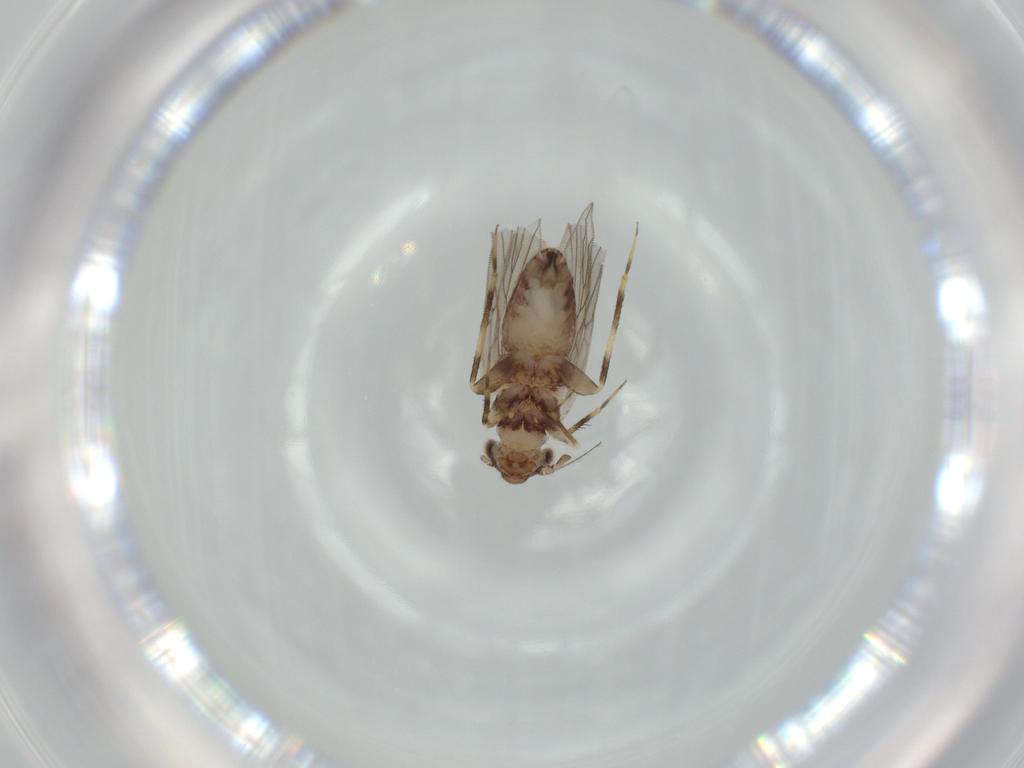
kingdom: Animalia
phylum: Arthropoda
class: Insecta
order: Psocodea
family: Lepidopsocidae
